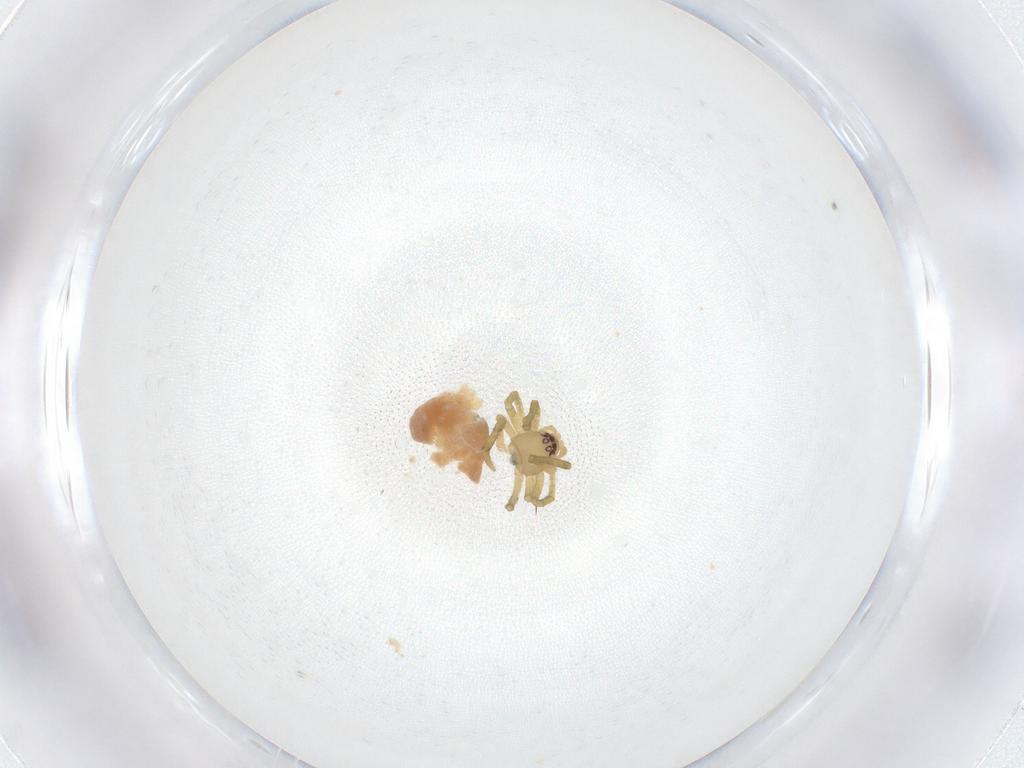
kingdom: Animalia
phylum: Arthropoda
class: Arachnida
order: Araneae
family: Theridiidae
